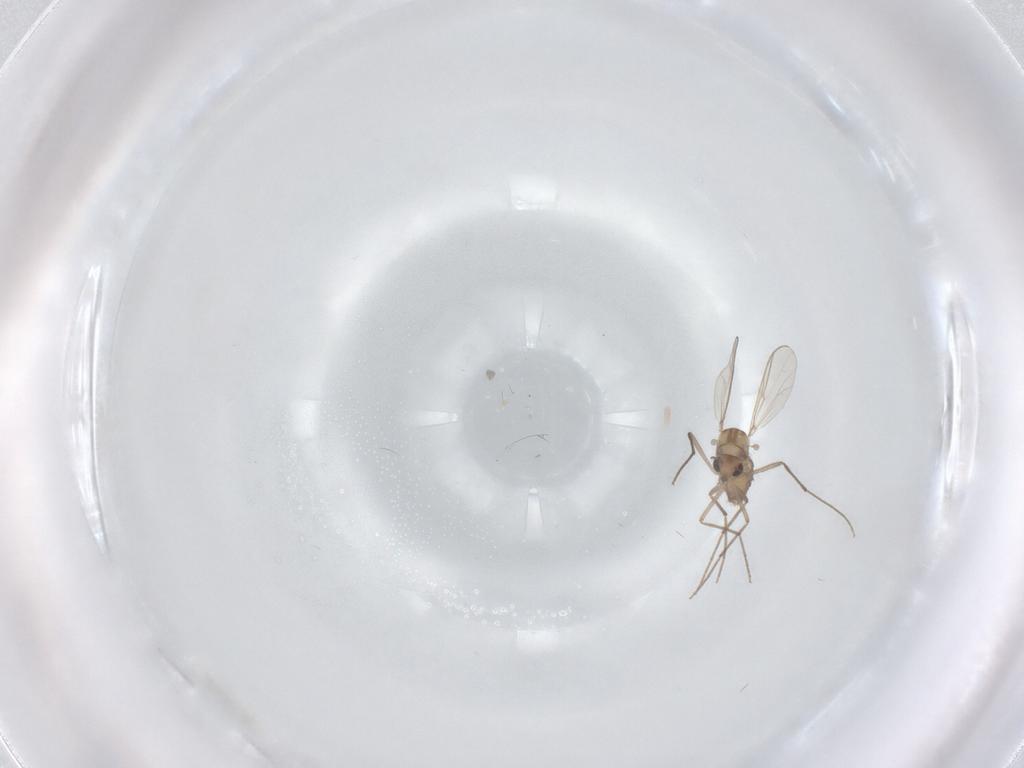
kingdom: Animalia
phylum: Arthropoda
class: Insecta
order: Diptera
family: Chironomidae
